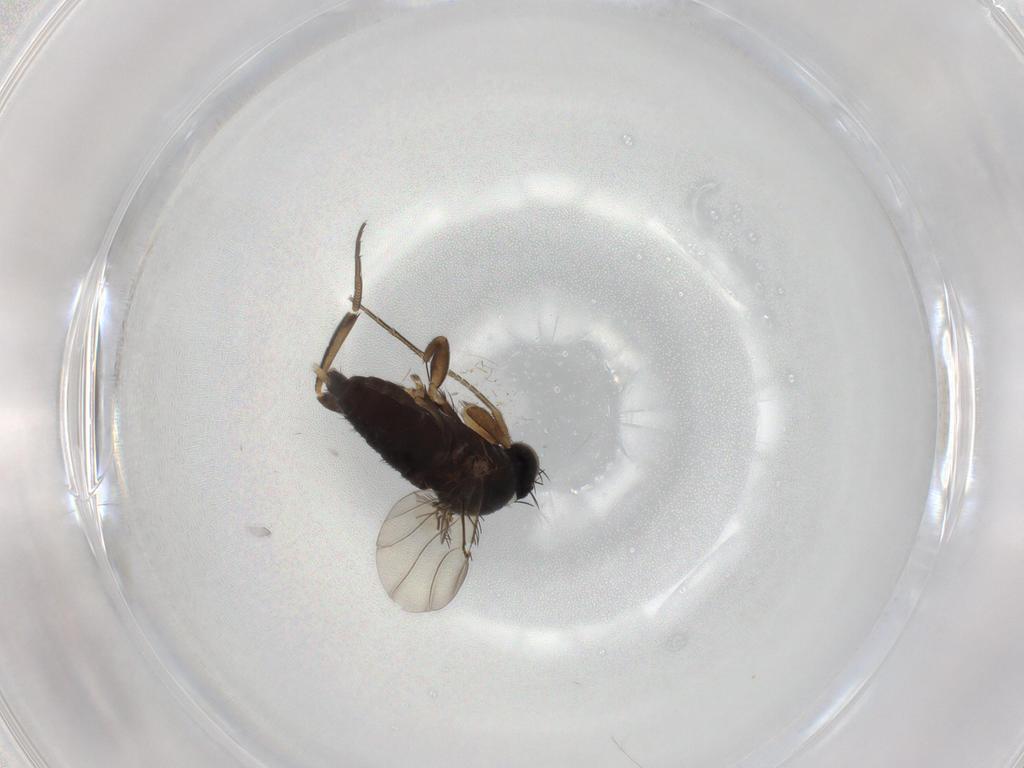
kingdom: Animalia
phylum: Arthropoda
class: Insecta
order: Diptera
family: Phoridae
